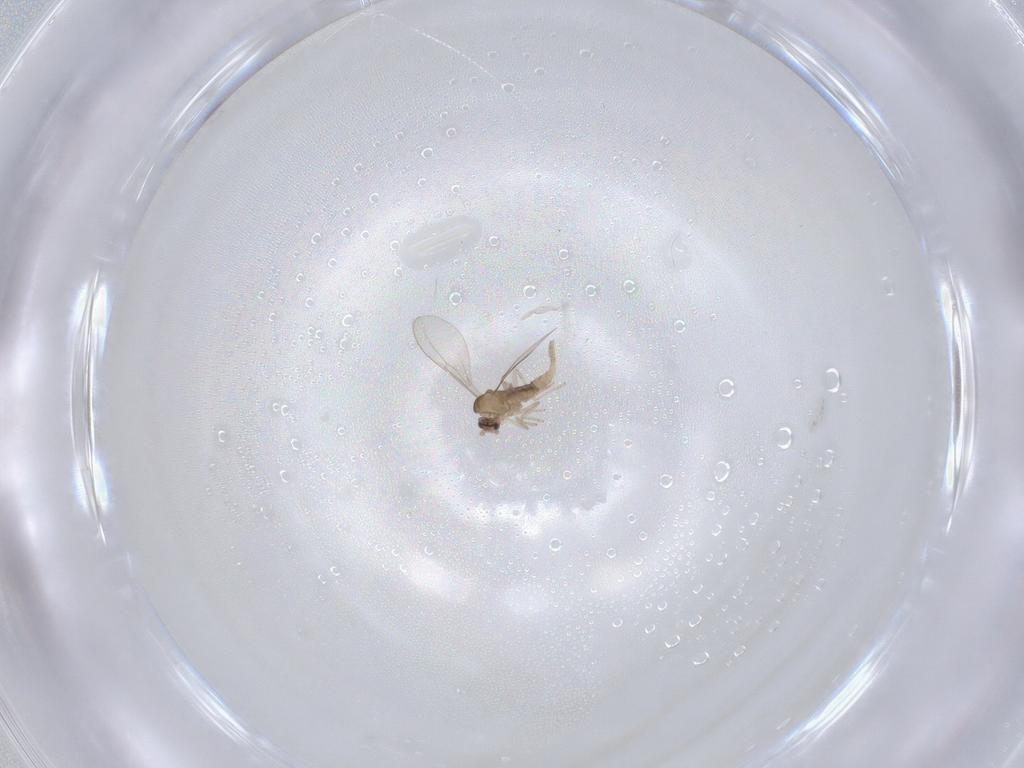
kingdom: Animalia
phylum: Arthropoda
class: Insecta
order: Diptera
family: Cecidomyiidae
